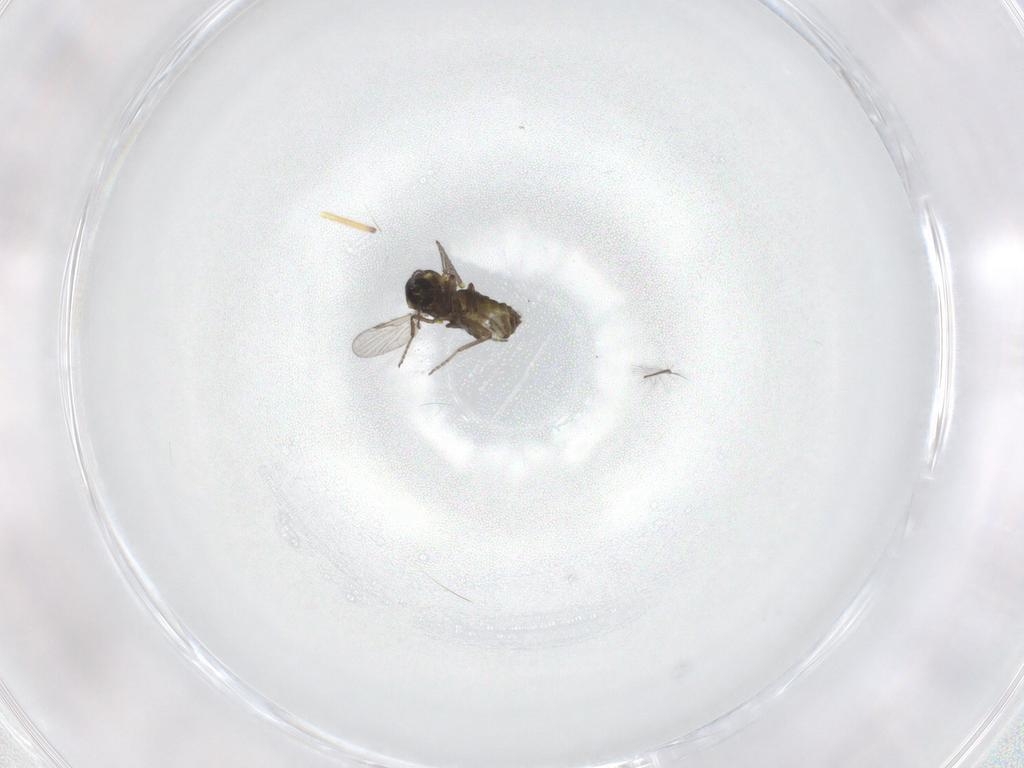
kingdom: Animalia
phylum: Arthropoda
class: Insecta
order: Diptera
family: Ceratopogonidae
